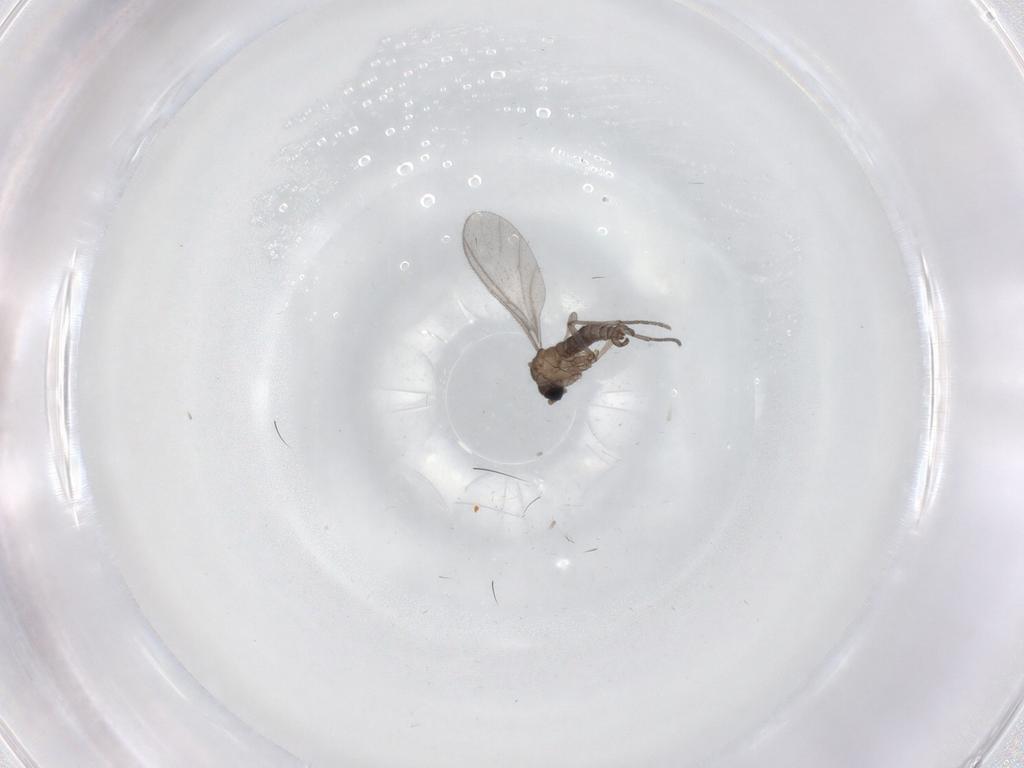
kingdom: Animalia
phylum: Arthropoda
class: Insecta
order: Diptera
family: Sciaridae
